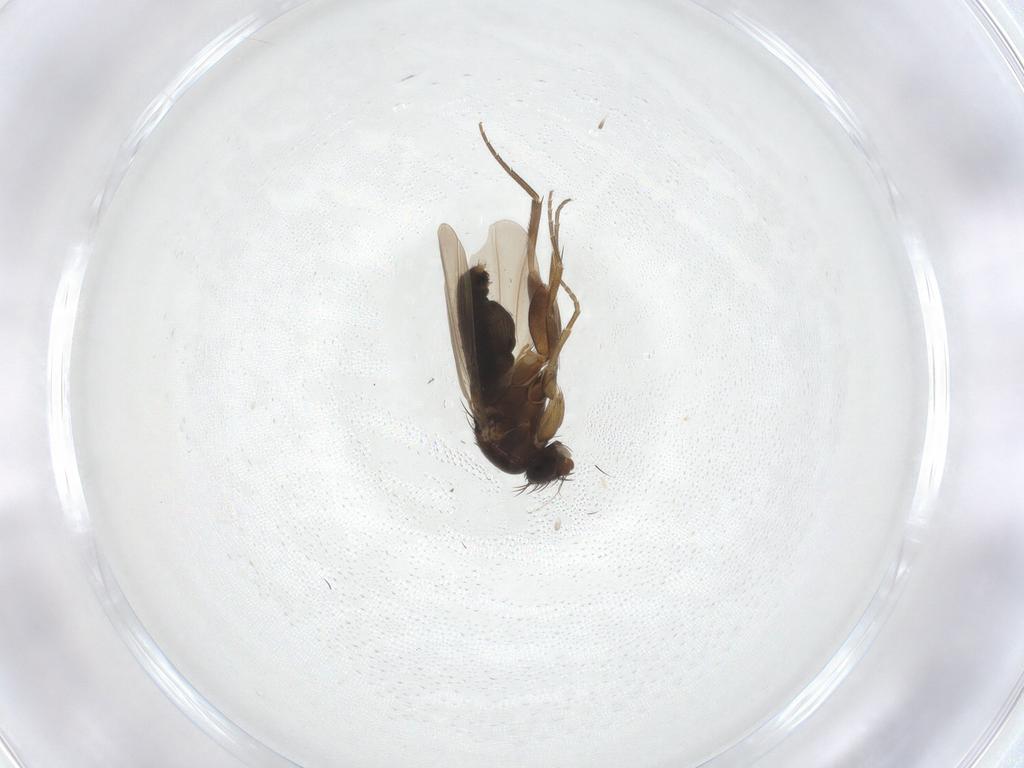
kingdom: Animalia
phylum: Arthropoda
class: Insecta
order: Diptera
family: Phoridae
